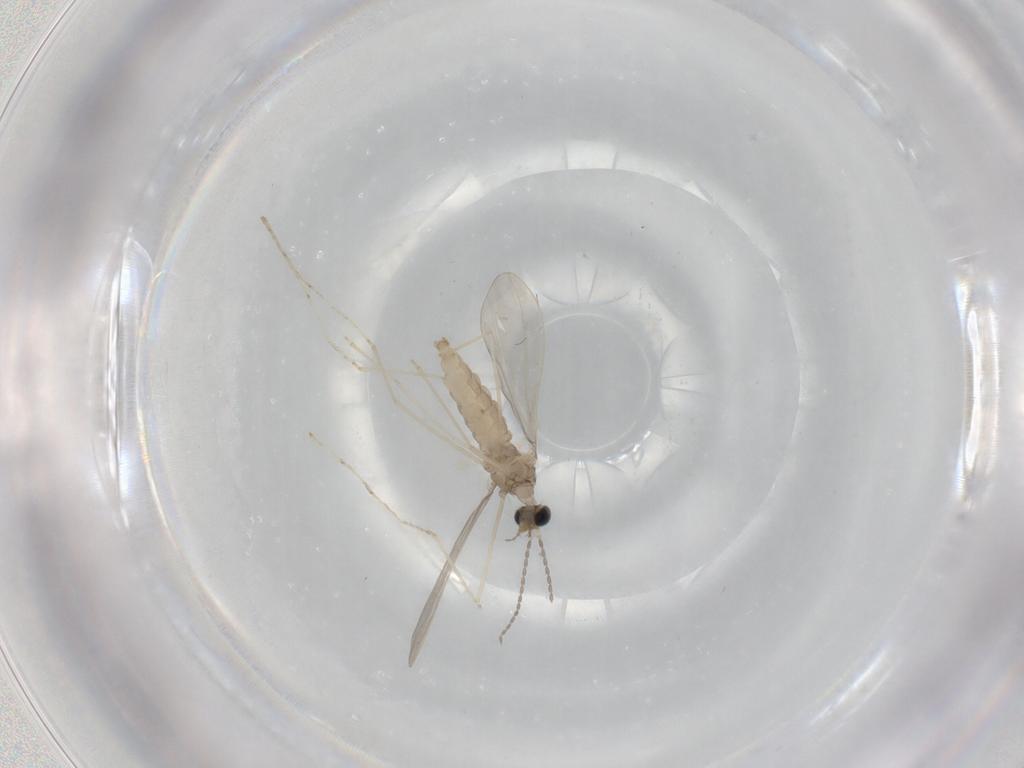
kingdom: Animalia
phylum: Arthropoda
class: Insecta
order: Diptera
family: Cecidomyiidae
